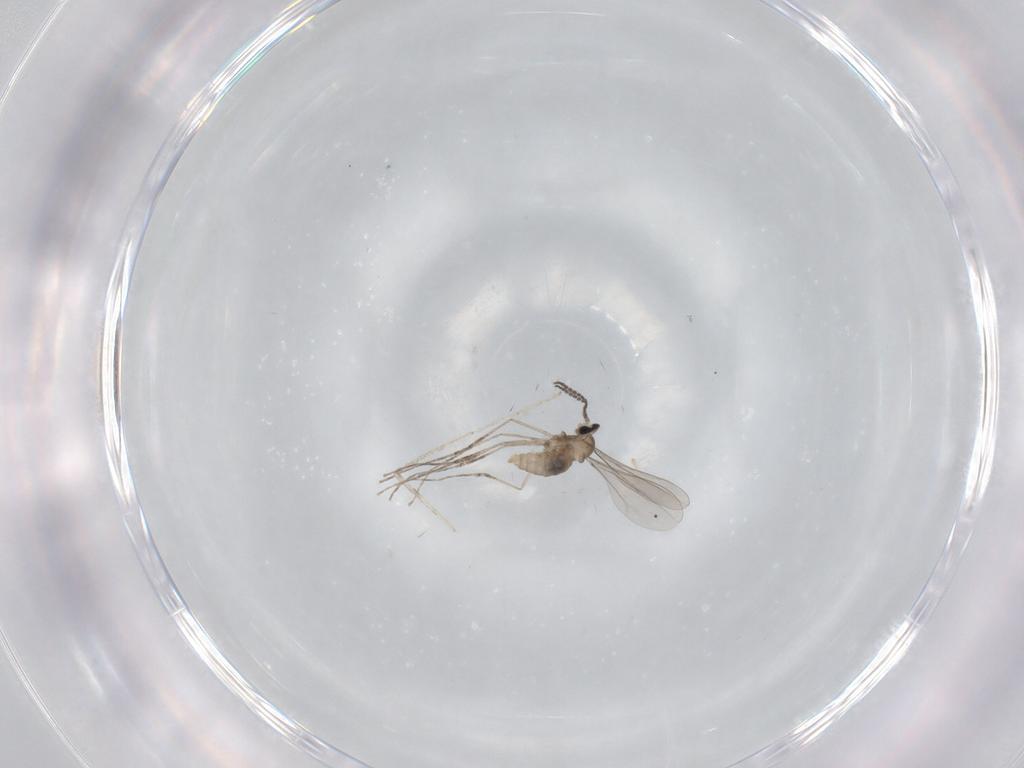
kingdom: Animalia
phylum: Arthropoda
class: Insecta
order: Diptera
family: Cecidomyiidae
